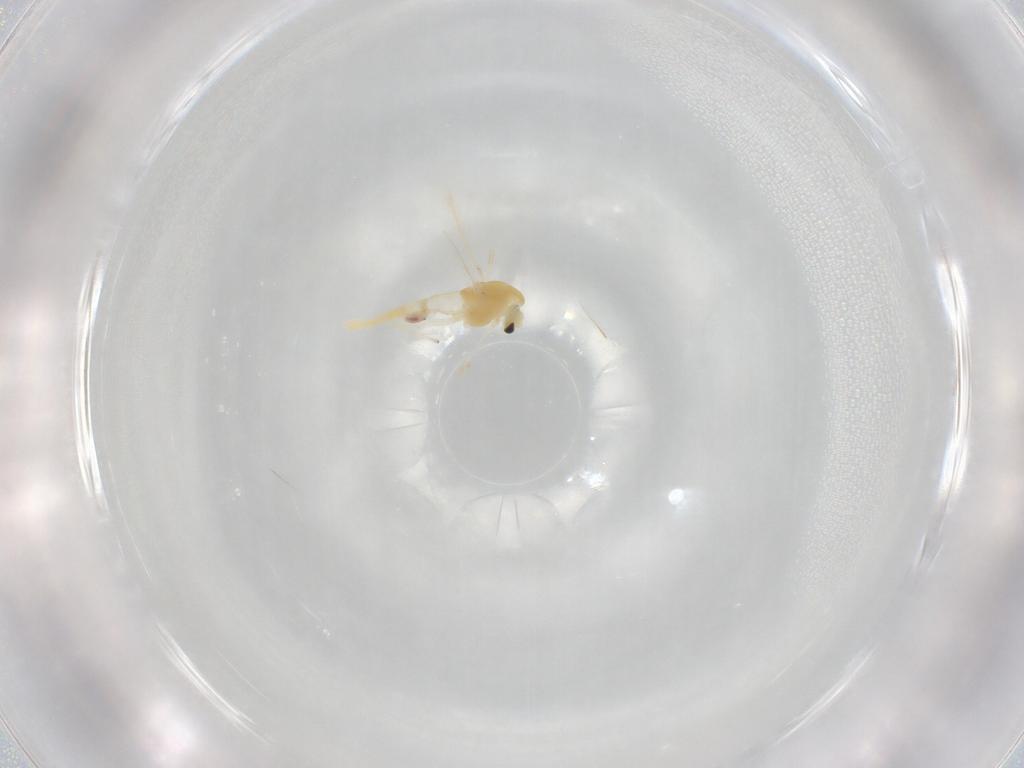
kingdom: Animalia
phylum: Arthropoda
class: Insecta
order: Diptera
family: Chironomidae
